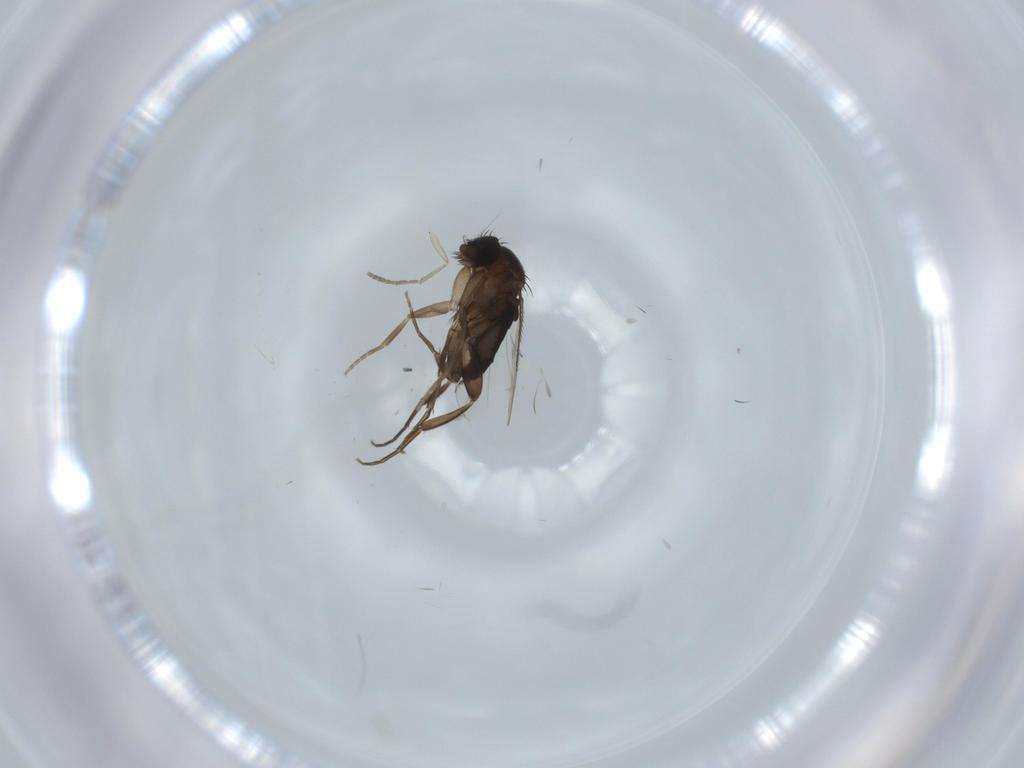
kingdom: Animalia
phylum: Arthropoda
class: Insecta
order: Diptera
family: Phoridae
